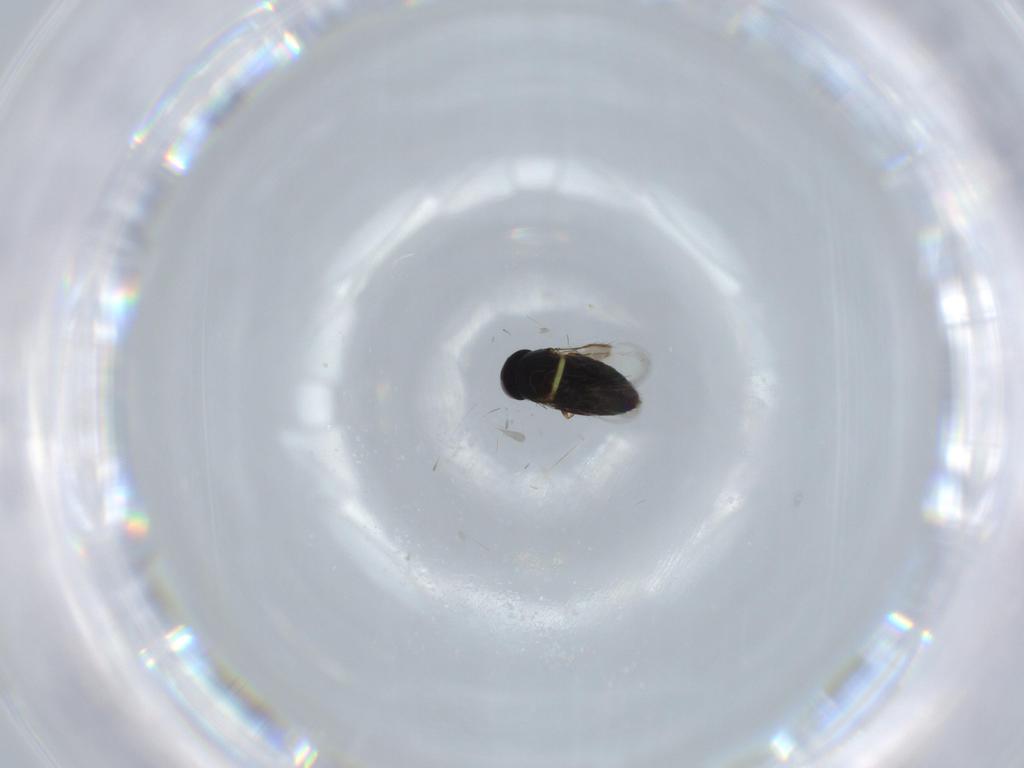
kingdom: Animalia
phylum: Arthropoda
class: Insecta
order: Hymenoptera
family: Signiphoridae
